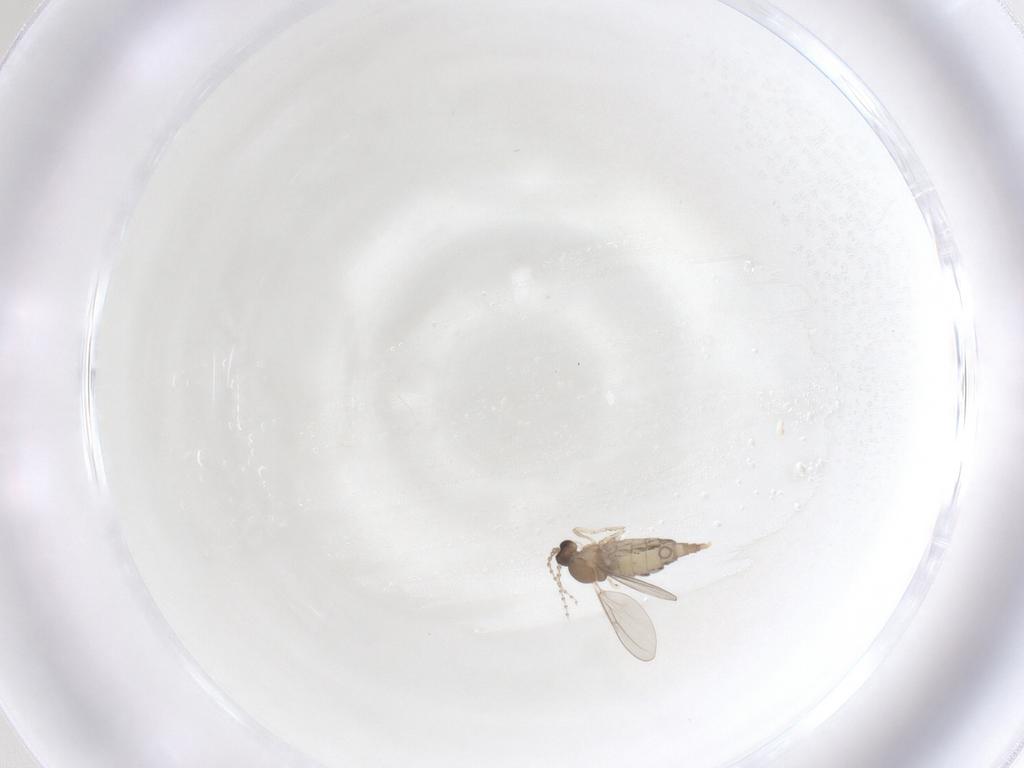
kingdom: Animalia
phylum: Arthropoda
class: Insecta
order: Diptera
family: Cecidomyiidae
